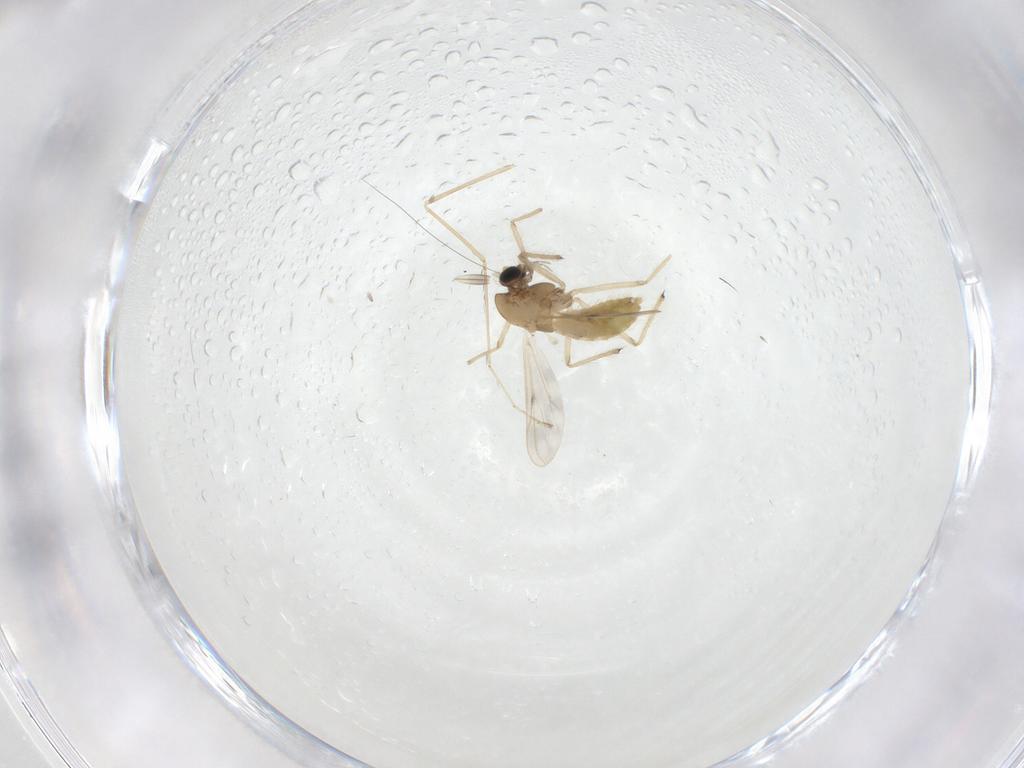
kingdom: Animalia
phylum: Arthropoda
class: Insecta
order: Diptera
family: Chironomidae
